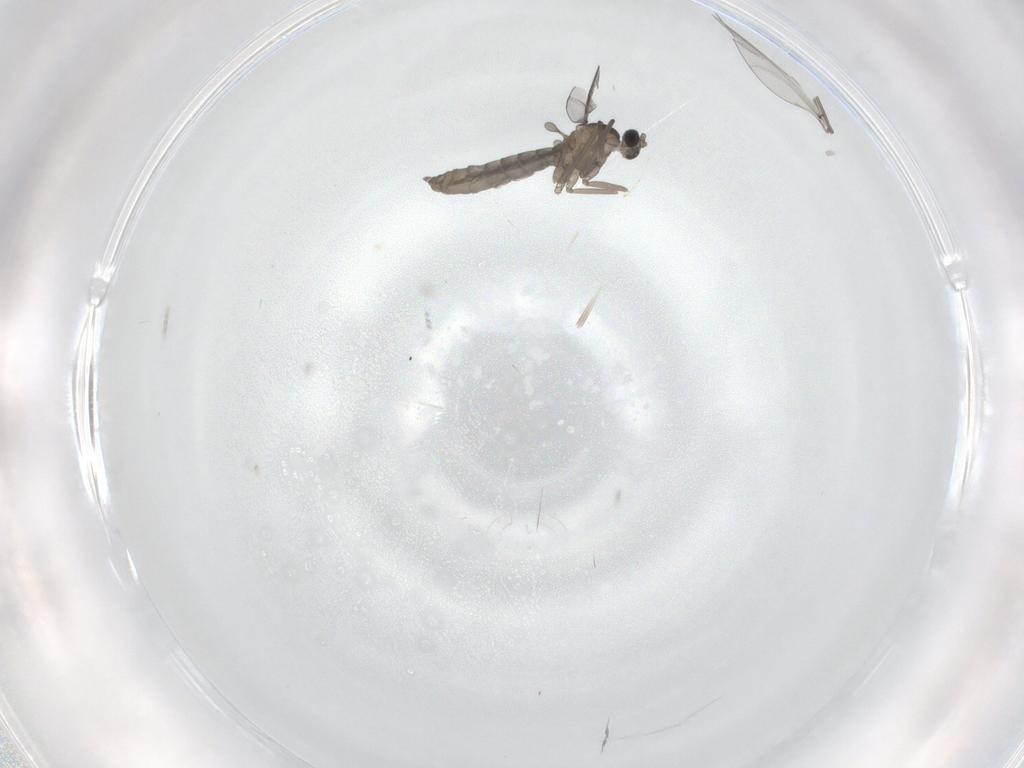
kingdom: Animalia
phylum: Arthropoda
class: Insecta
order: Diptera
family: Cecidomyiidae
